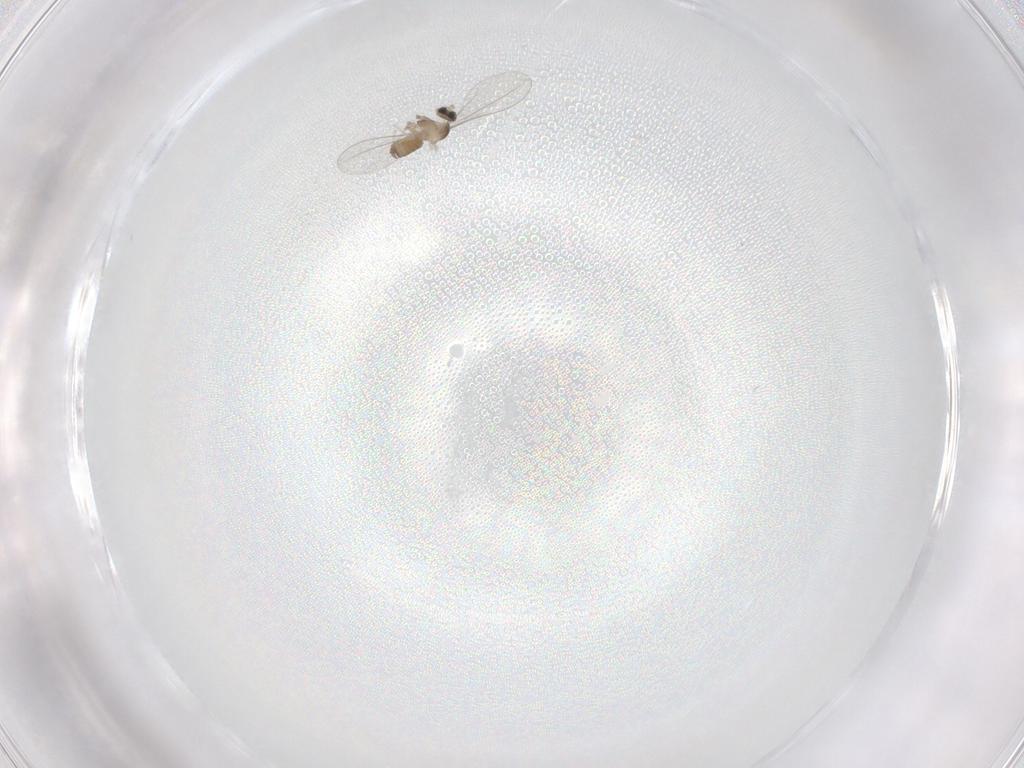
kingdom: Animalia
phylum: Arthropoda
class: Insecta
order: Diptera
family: Cecidomyiidae
